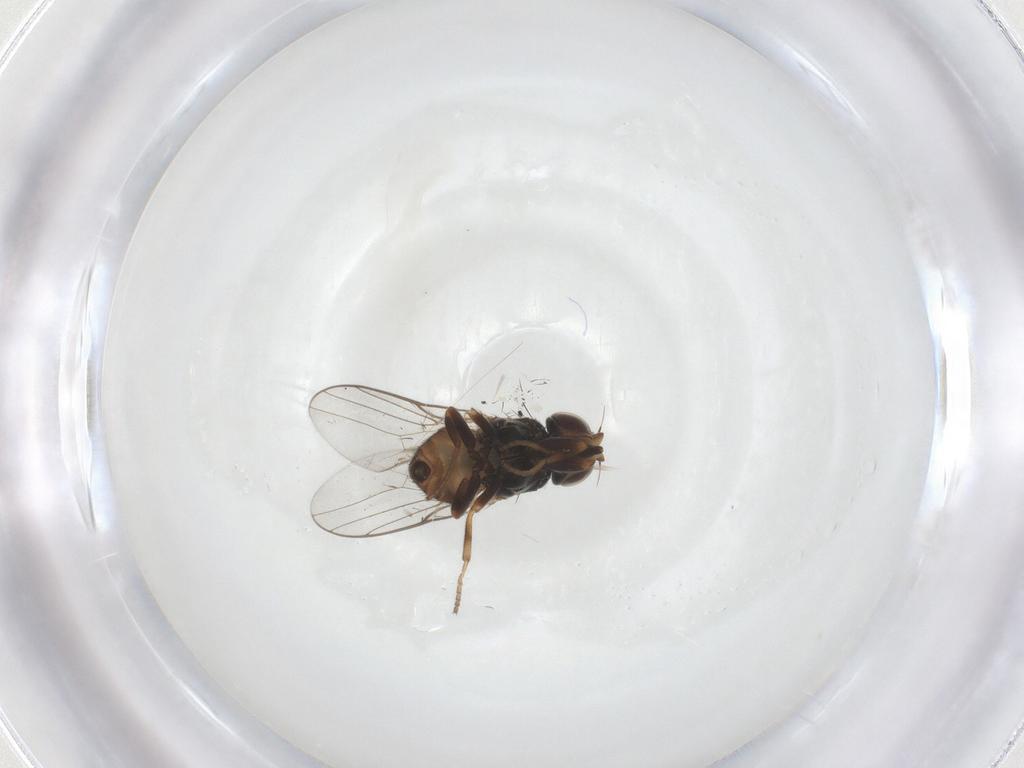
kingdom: Animalia
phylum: Arthropoda
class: Insecta
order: Diptera
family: Chloropidae
